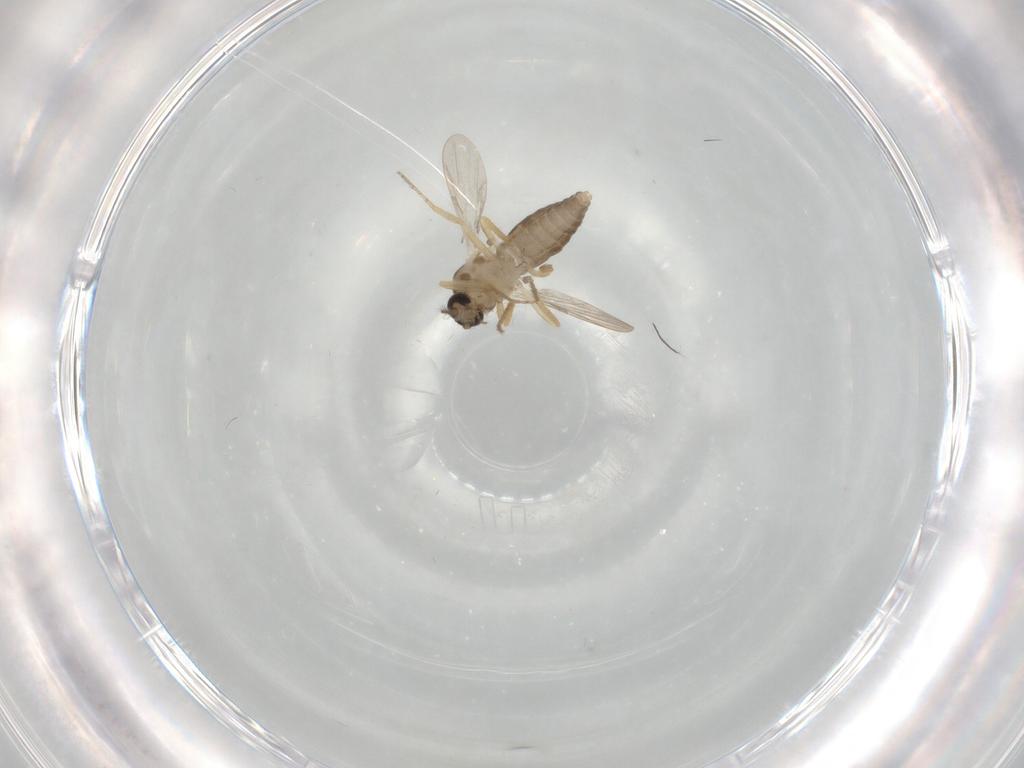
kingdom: Animalia
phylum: Arthropoda
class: Insecta
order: Diptera
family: Ceratopogonidae
